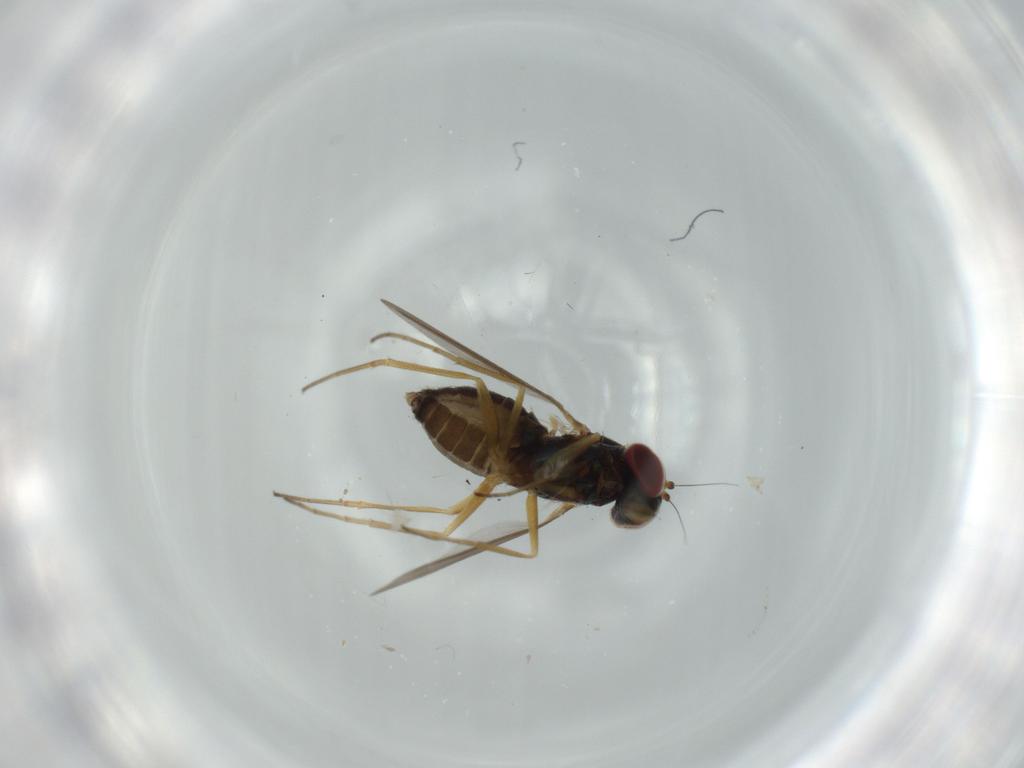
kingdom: Animalia
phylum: Arthropoda
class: Insecta
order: Diptera
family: Dolichopodidae
